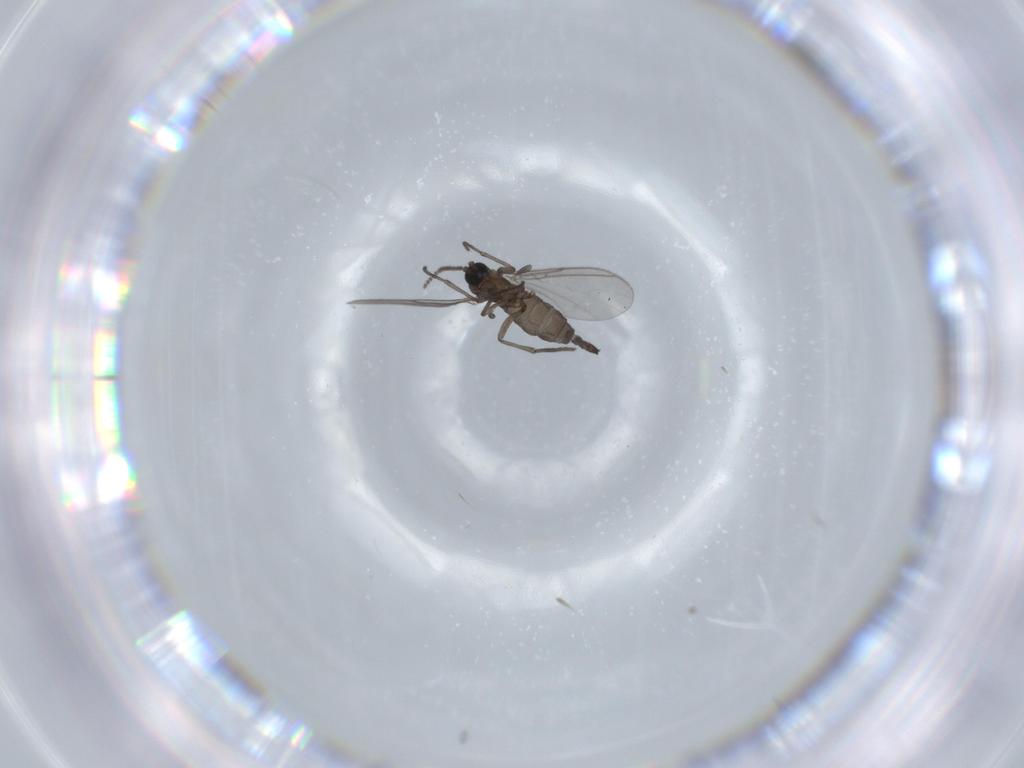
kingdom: Animalia
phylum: Arthropoda
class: Insecta
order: Diptera
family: Sciaridae
